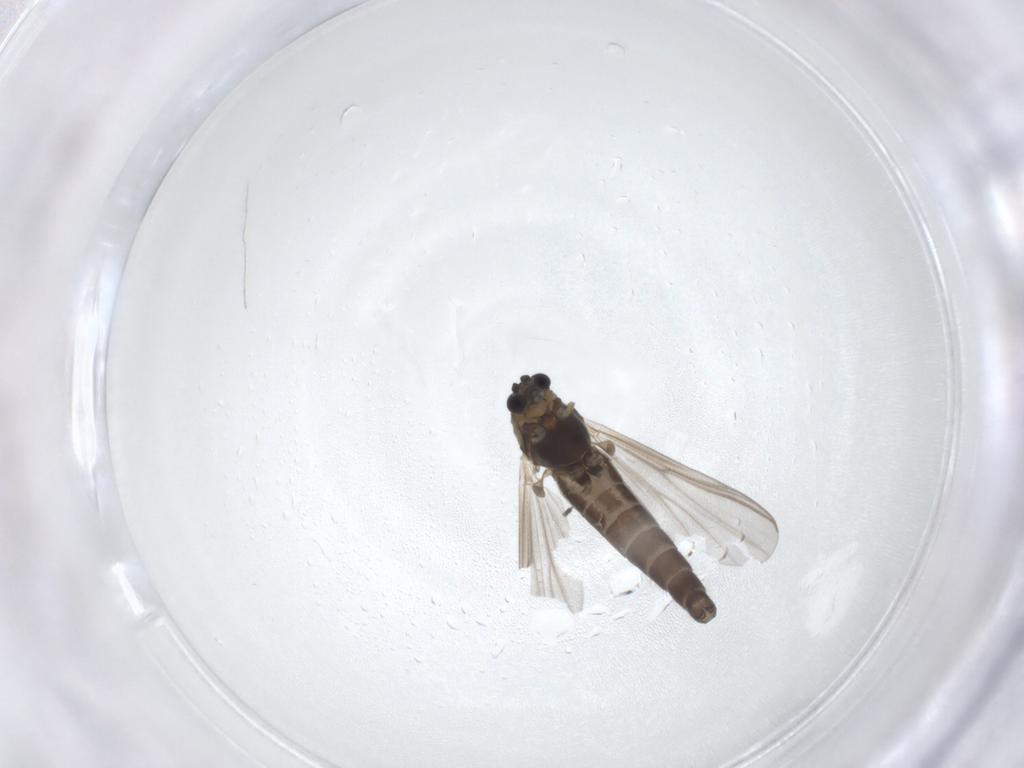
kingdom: Animalia
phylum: Arthropoda
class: Insecta
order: Diptera
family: Chironomidae
